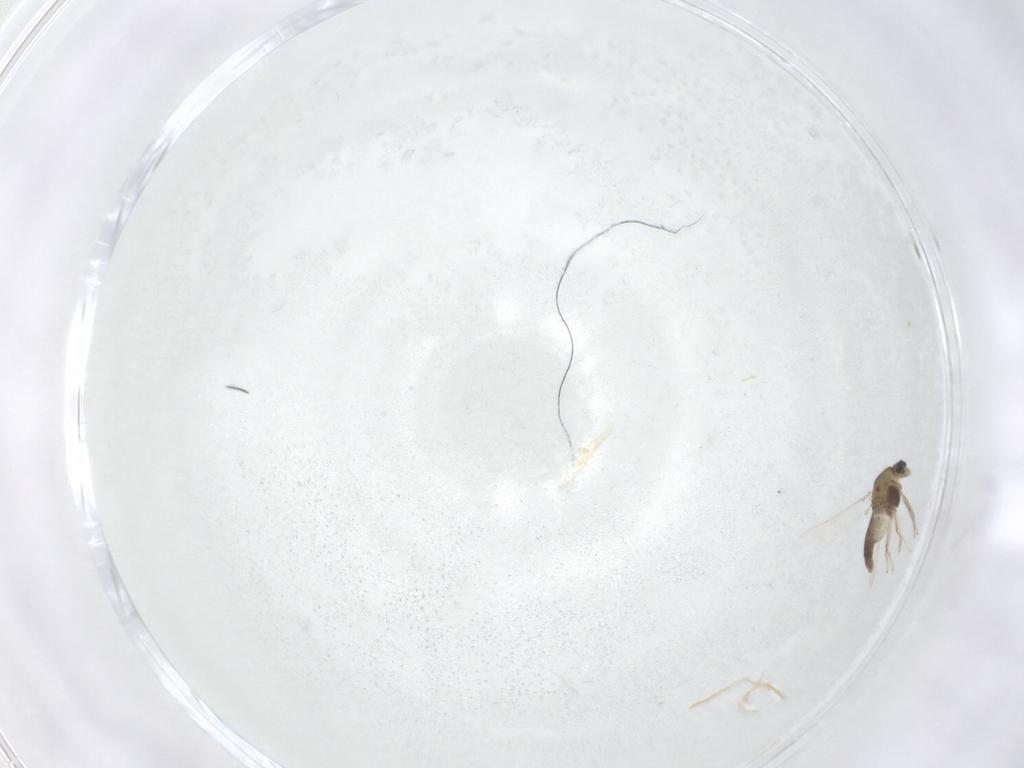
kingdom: Animalia
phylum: Arthropoda
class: Insecta
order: Diptera
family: Chironomidae
